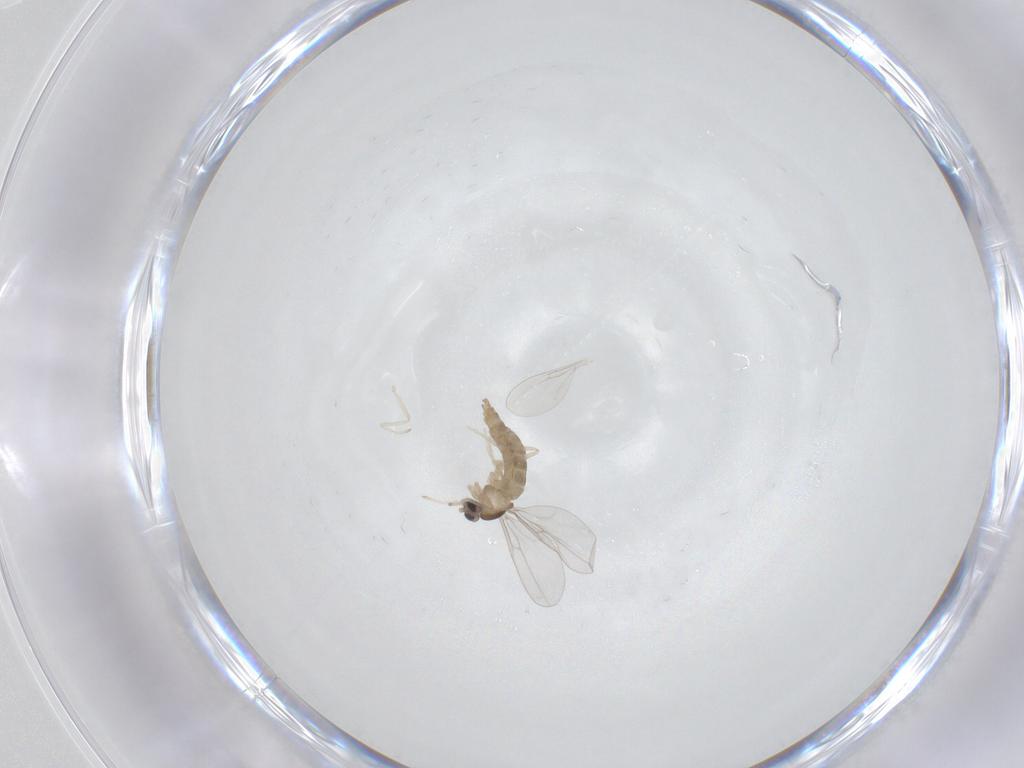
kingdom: Animalia
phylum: Arthropoda
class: Insecta
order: Diptera
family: Cecidomyiidae
